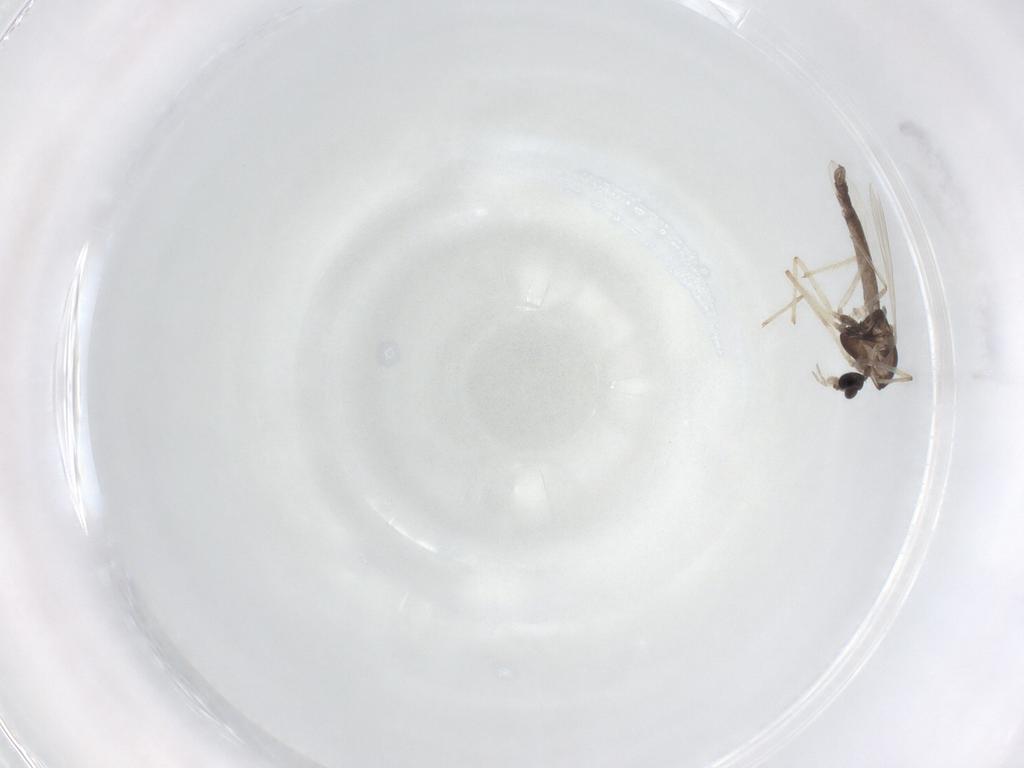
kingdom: Animalia
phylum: Arthropoda
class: Insecta
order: Diptera
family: Chironomidae
